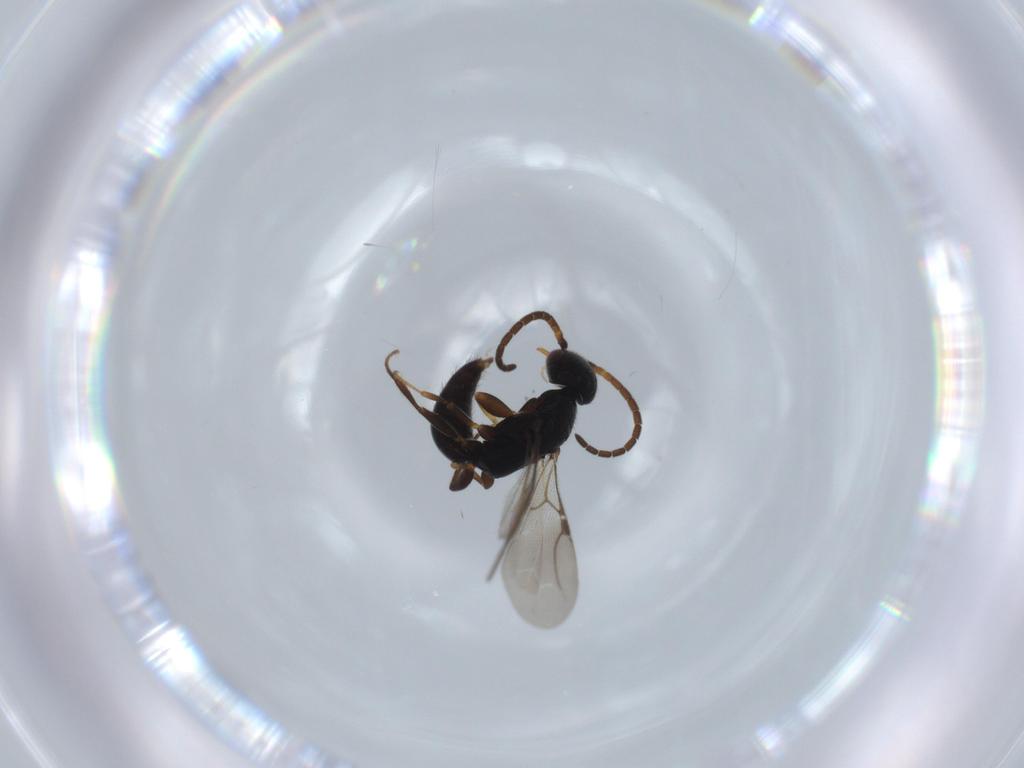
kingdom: Animalia
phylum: Arthropoda
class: Insecta
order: Hymenoptera
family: Bethylidae
